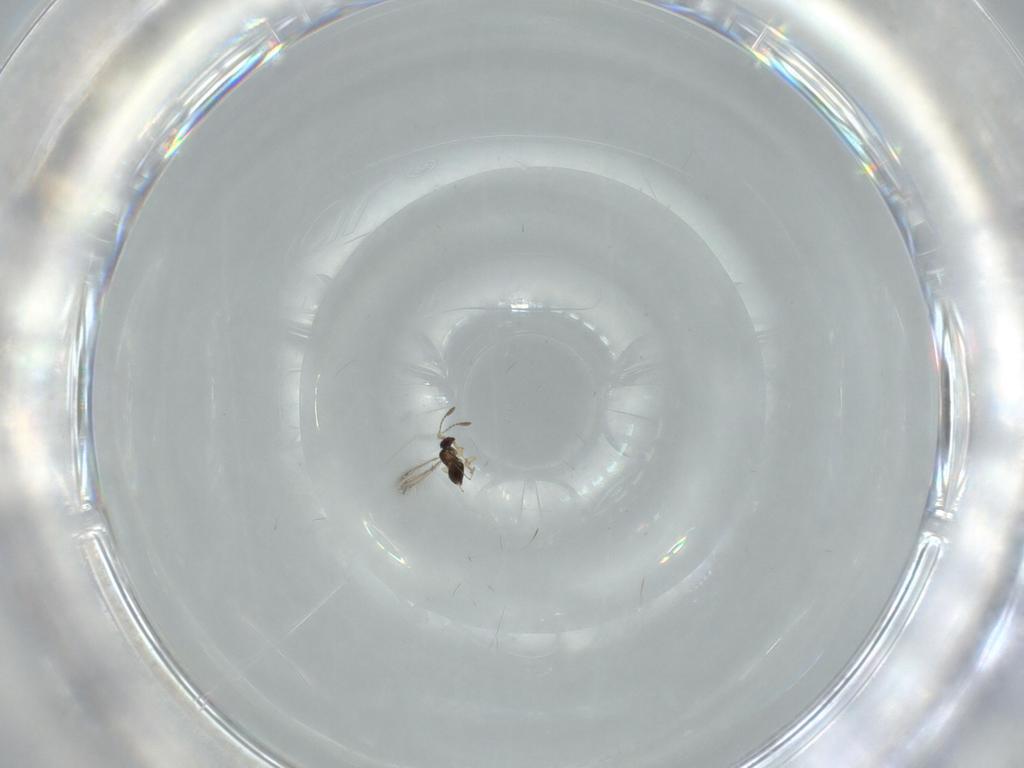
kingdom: Animalia
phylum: Arthropoda
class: Insecta
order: Hymenoptera
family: Mymaridae
